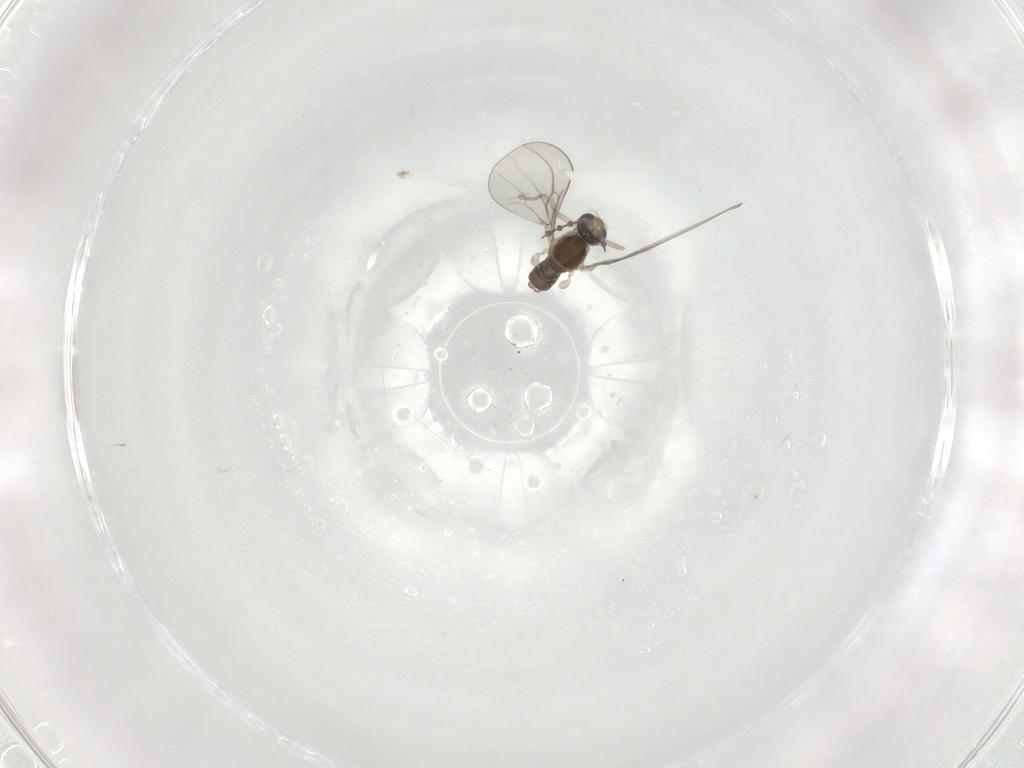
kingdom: Animalia
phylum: Arthropoda
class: Insecta
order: Diptera
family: Cecidomyiidae
